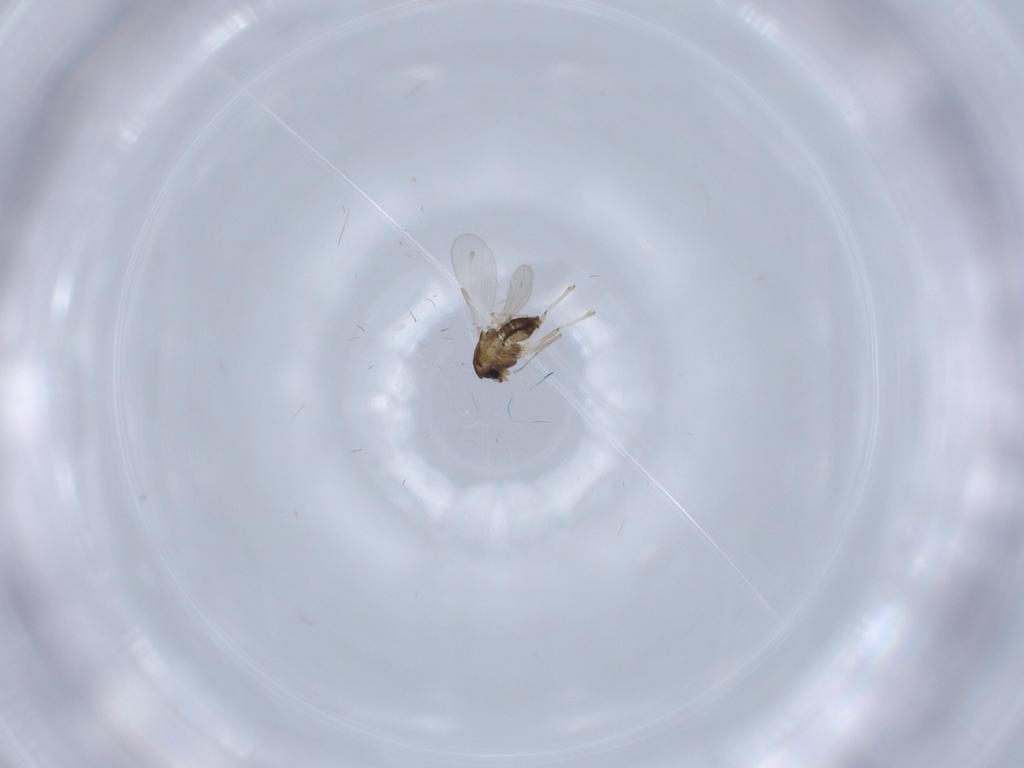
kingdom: Animalia
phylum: Arthropoda
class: Insecta
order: Diptera
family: Chironomidae
